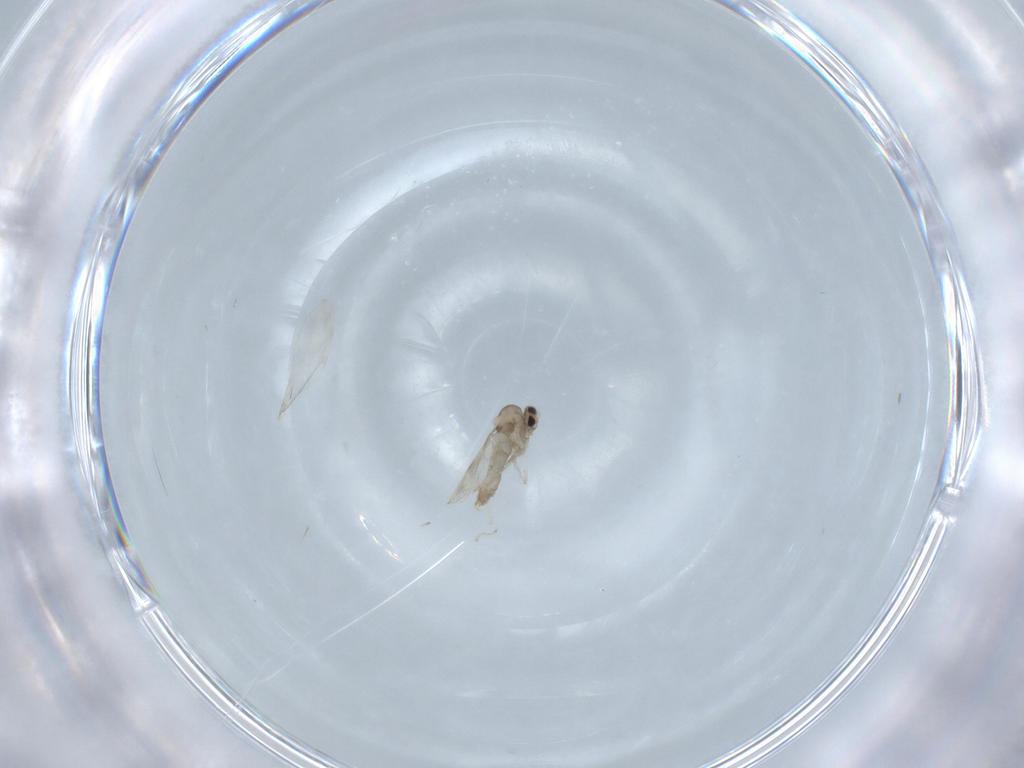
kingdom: Animalia
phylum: Arthropoda
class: Insecta
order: Diptera
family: Cecidomyiidae
